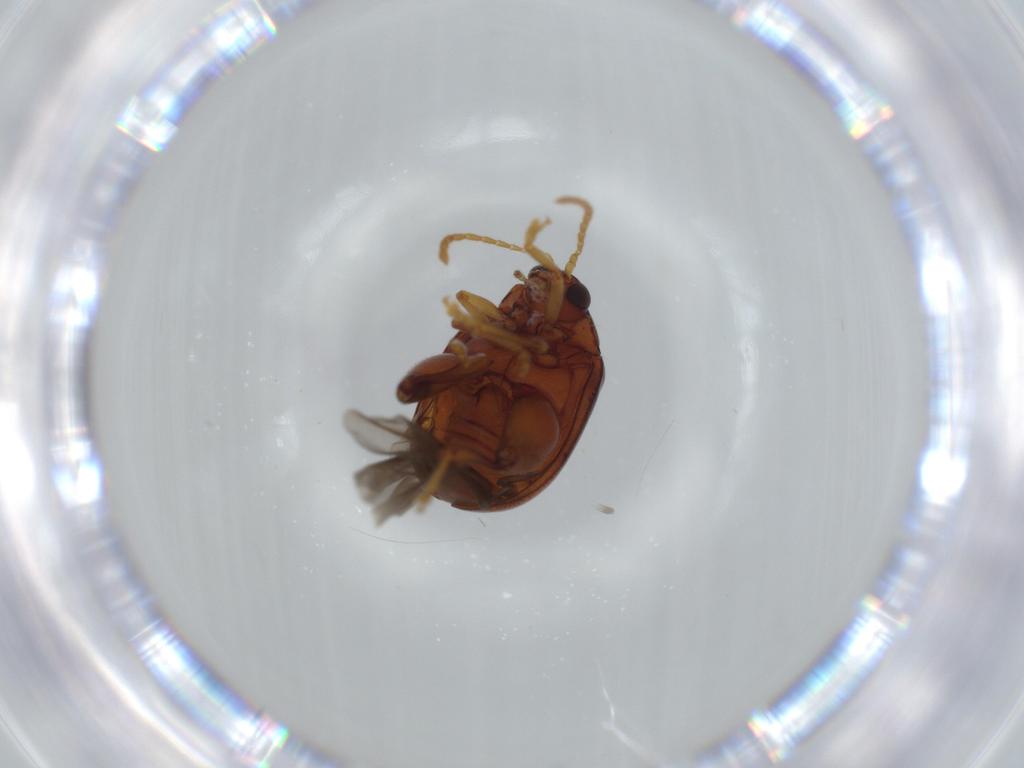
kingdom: Animalia
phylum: Arthropoda
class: Insecta
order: Coleoptera
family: Chrysomelidae
